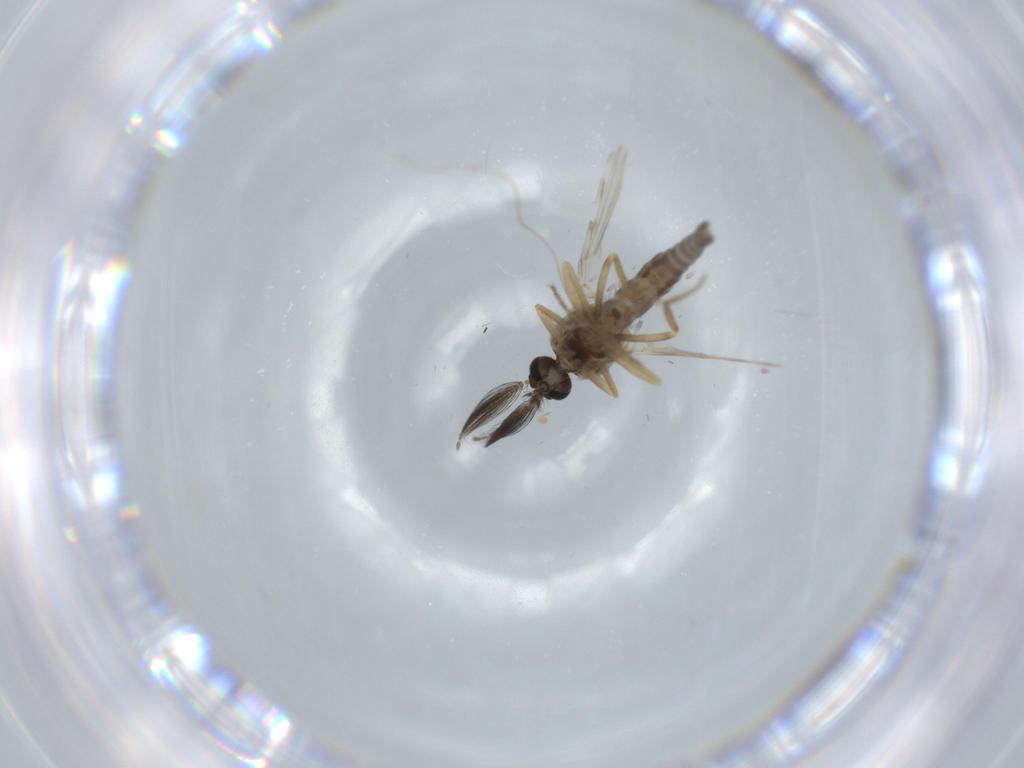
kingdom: Animalia
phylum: Arthropoda
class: Insecta
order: Diptera
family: Ceratopogonidae
